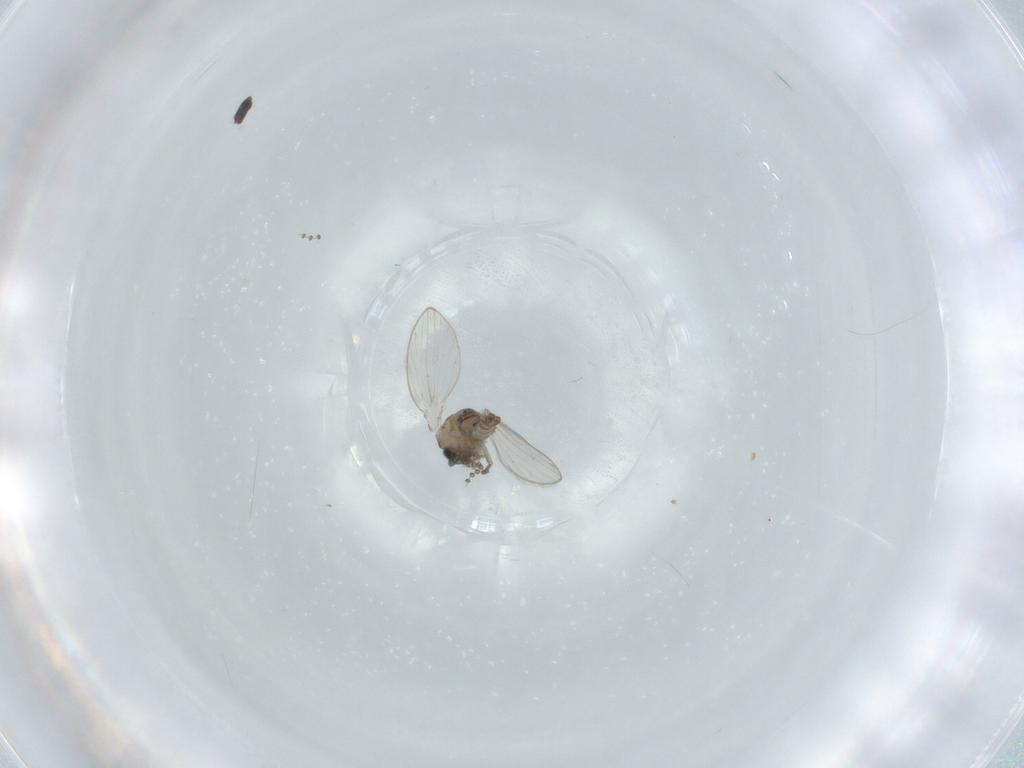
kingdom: Animalia
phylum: Arthropoda
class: Insecta
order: Diptera
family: Psychodidae
